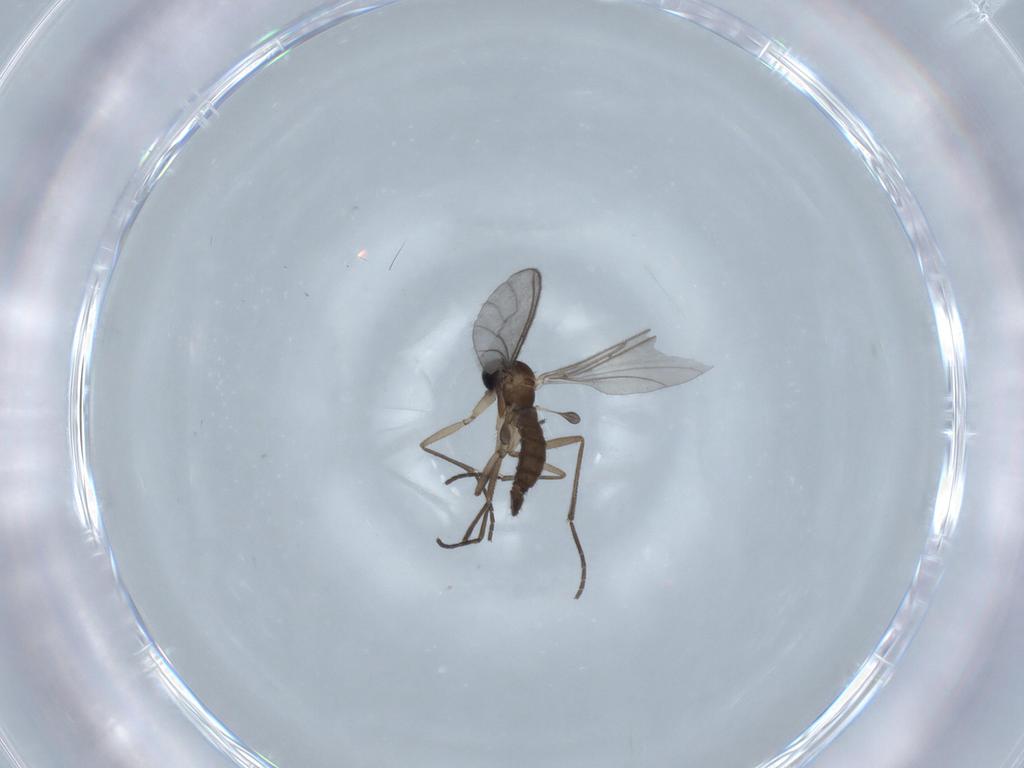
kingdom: Animalia
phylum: Arthropoda
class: Insecta
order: Diptera
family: Sciaridae
